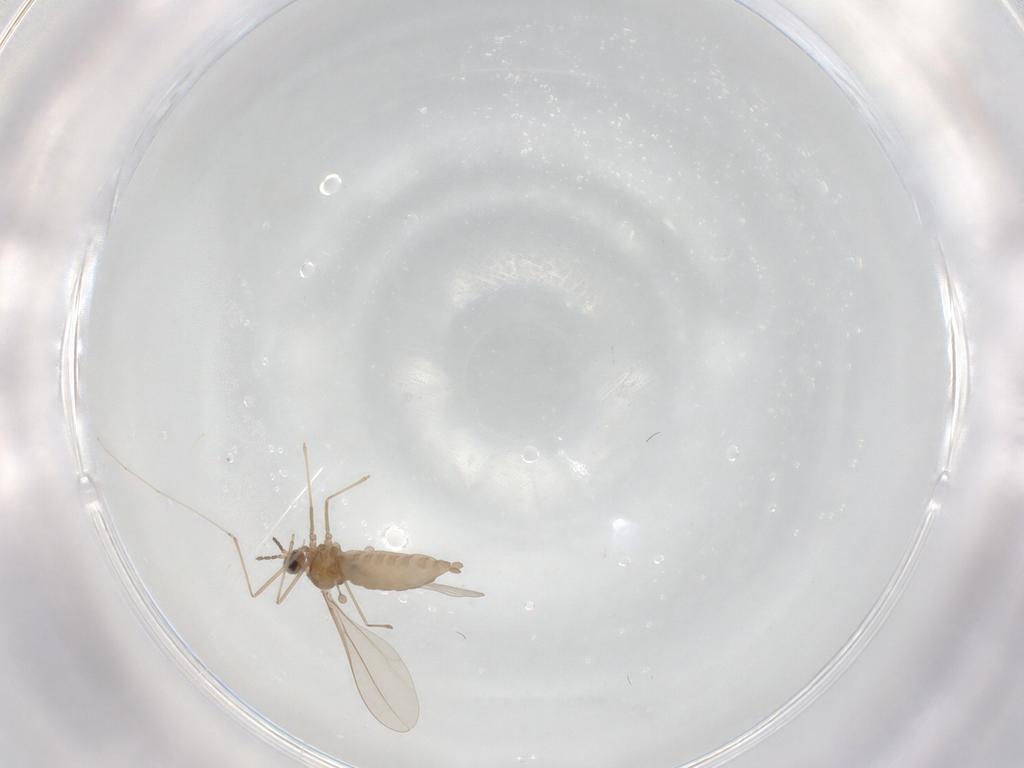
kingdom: Animalia
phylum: Arthropoda
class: Insecta
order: Diptera
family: Cecidomyiidae
